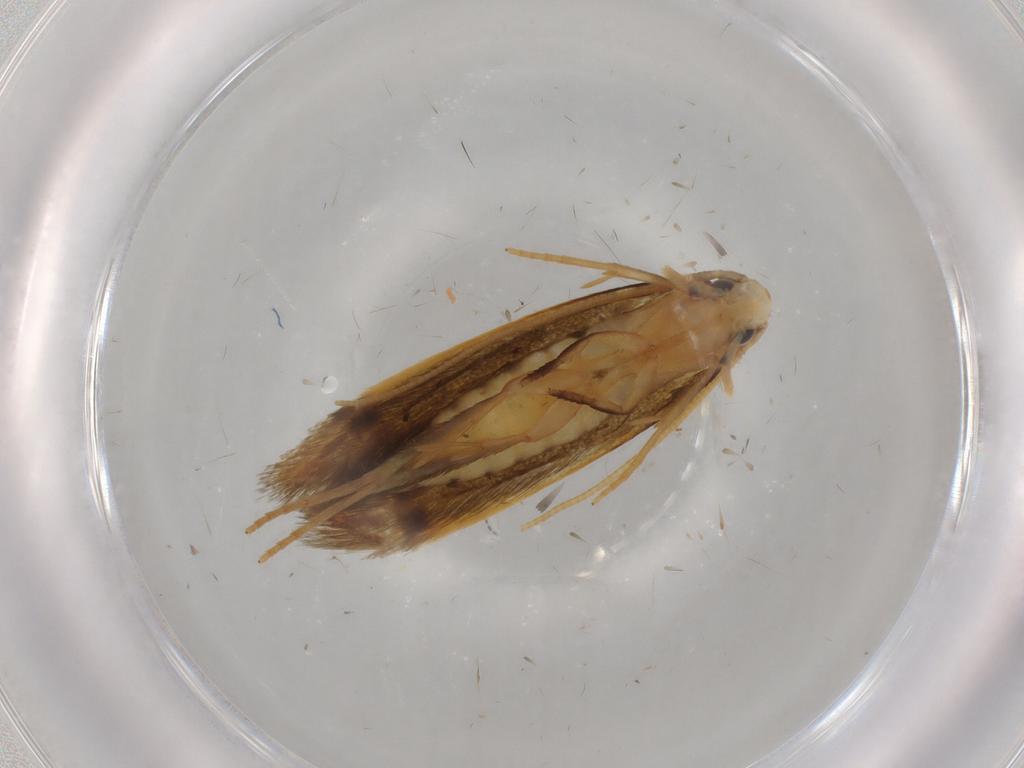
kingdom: Animalia
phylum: Arthropoda
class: Insecta
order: Lepidoptera
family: Tineidae
